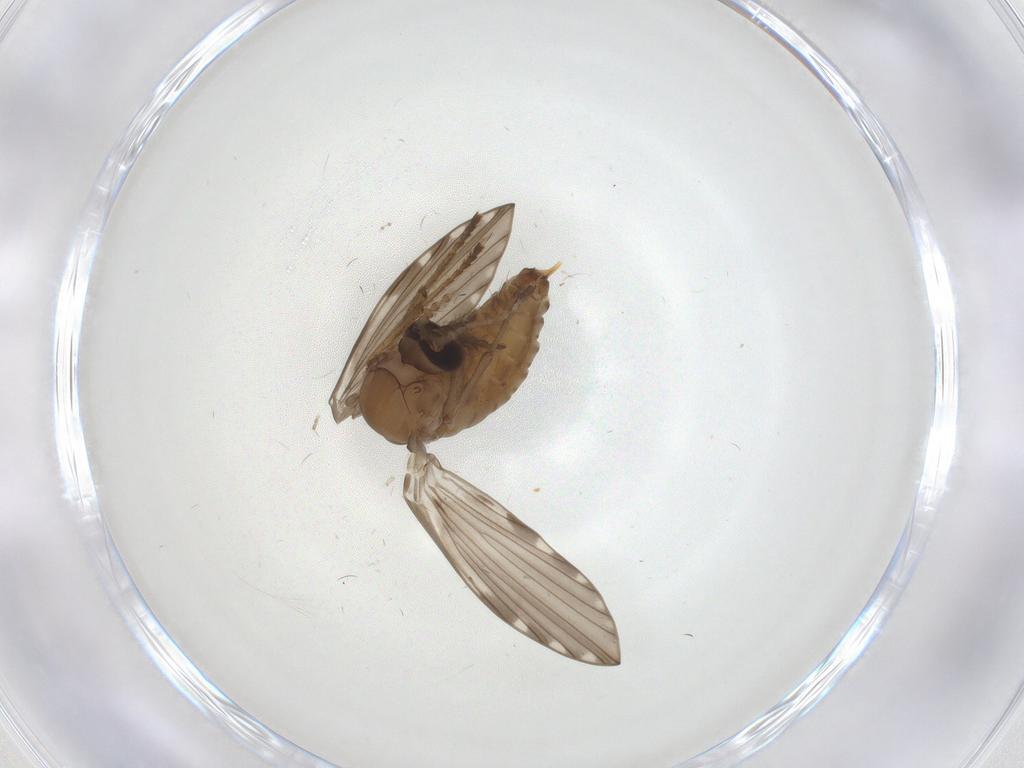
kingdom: Animalia
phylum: Arthropoda
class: Insecta
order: Diptera
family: Psychodidae
